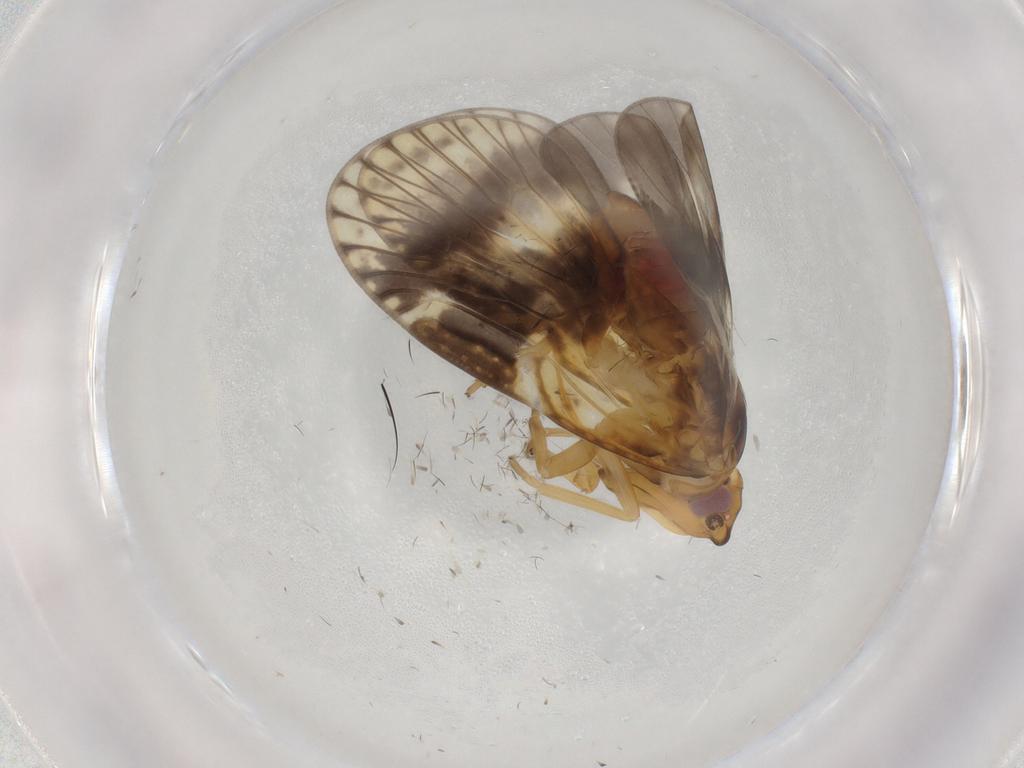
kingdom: Animalia
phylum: Arthropoda
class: Insecta
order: Hemiptera
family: Cixiidae
